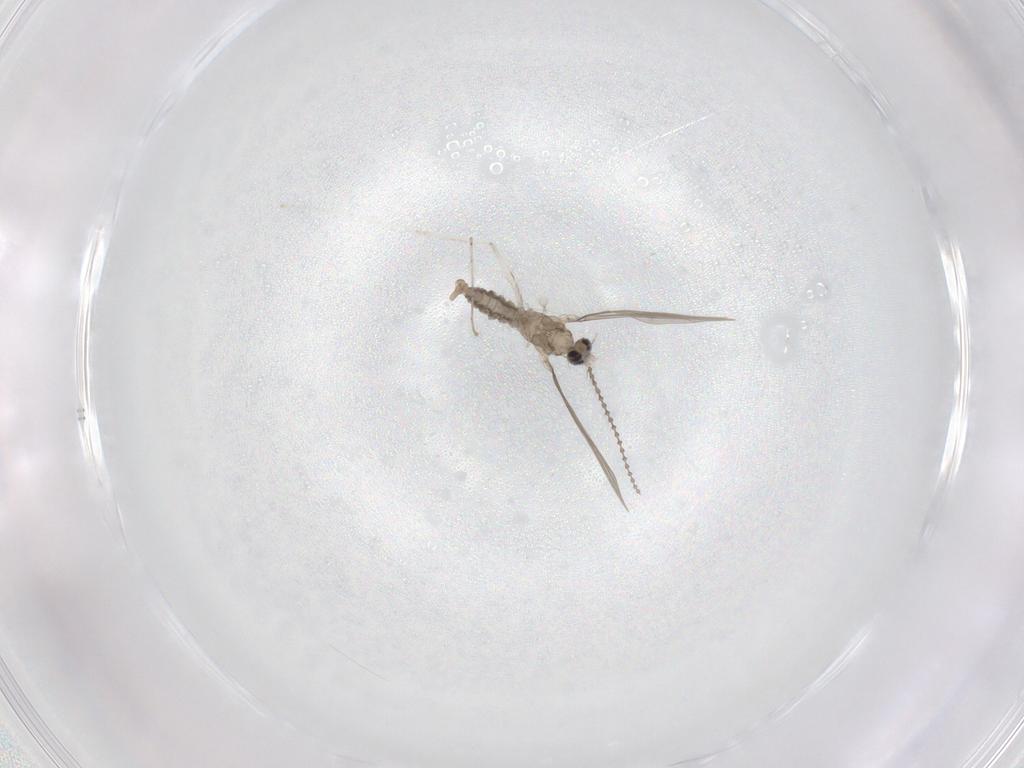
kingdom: Animalia
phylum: Arthropoda
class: Insecta
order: Diptera
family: Cecidomyiidae
